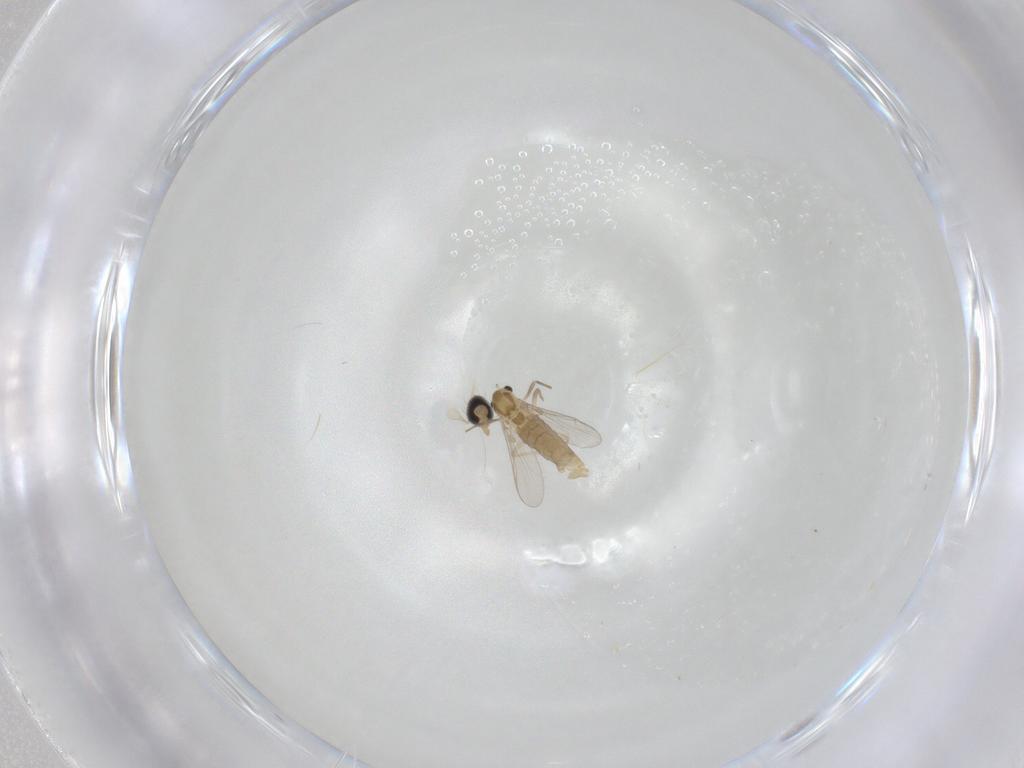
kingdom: Animalia
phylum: Arthropoda
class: Insecta
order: Diptera
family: Chironomidae
